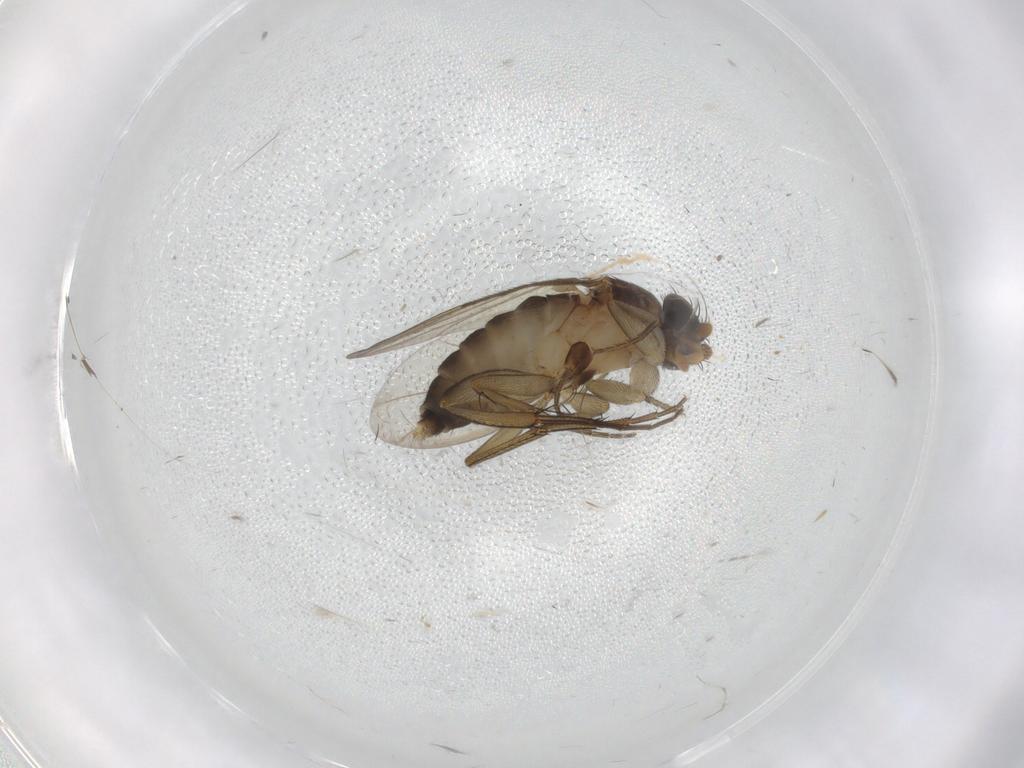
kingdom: Animalia
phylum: Arthropoda
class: Insecta
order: Diptera
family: Phoridae
